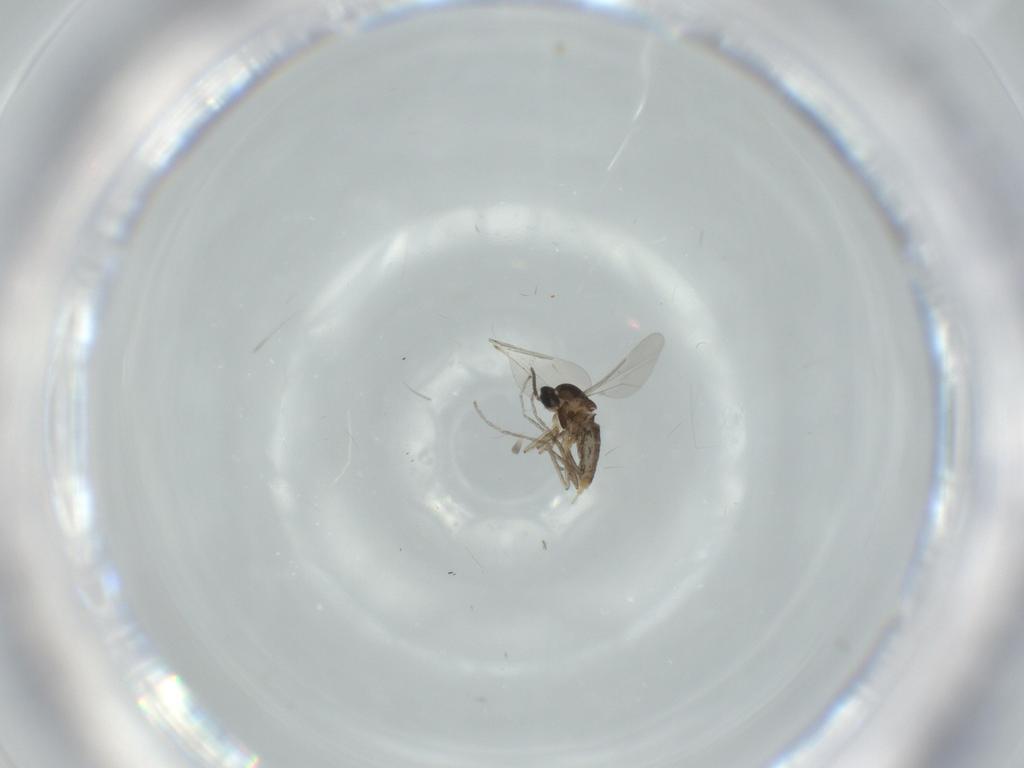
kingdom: Animalia
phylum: Arthropoda
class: Insecta
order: Diptera
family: Cecidomyiidae
